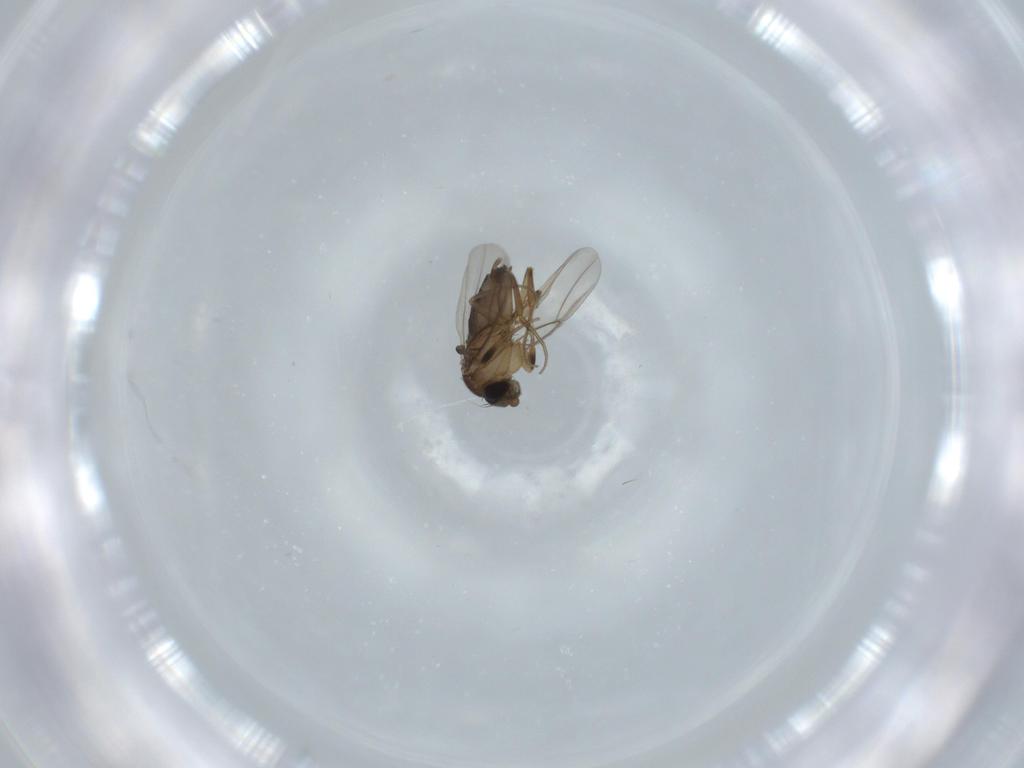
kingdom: Animalia
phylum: Arthropoda
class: Insecta
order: Diptera
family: Phoridae
